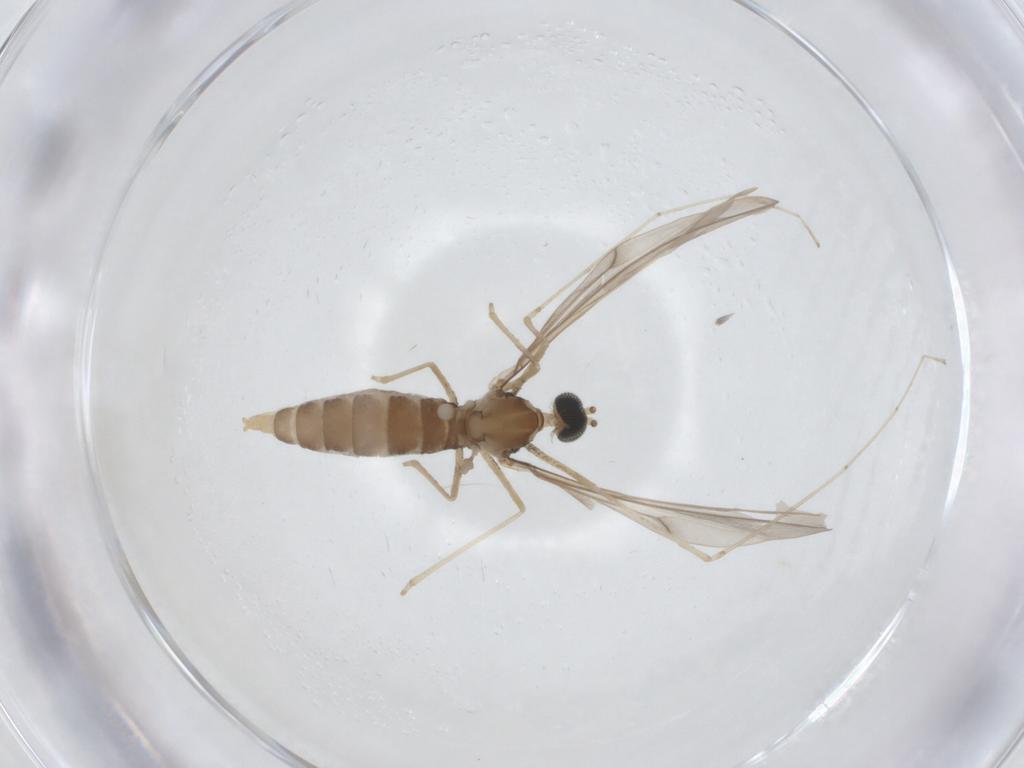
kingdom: Animalia
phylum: Arthropoda
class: Insecta
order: Diptera
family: Cecidomyiidae
